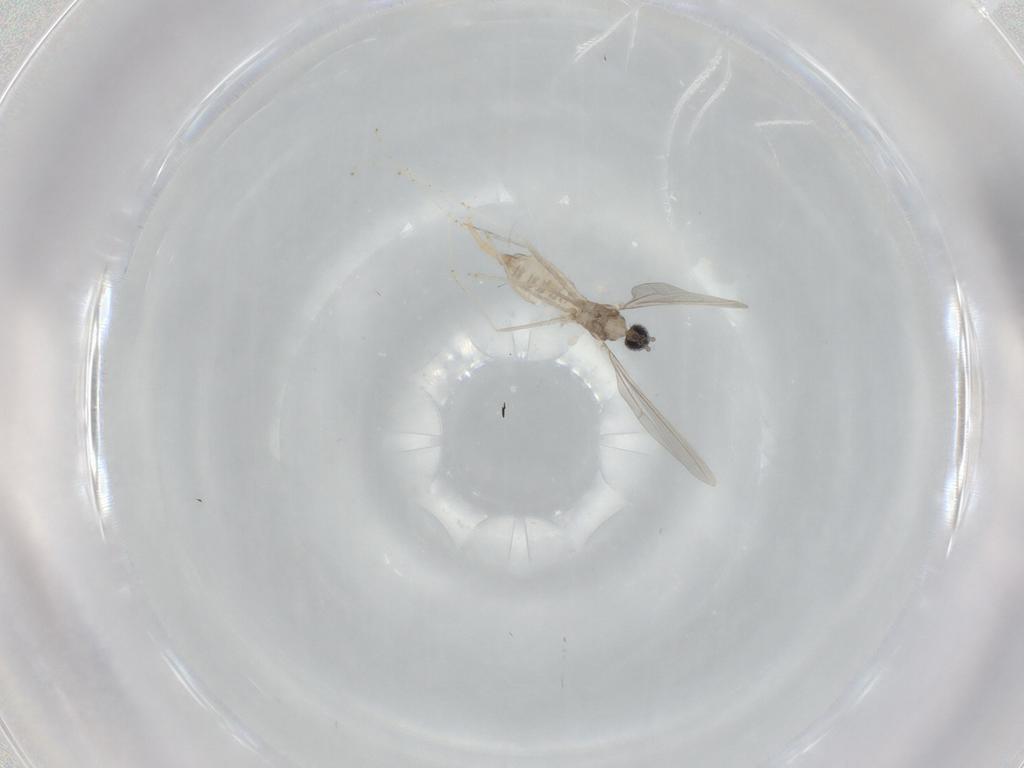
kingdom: Animalia
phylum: Arthropoda
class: Insecta
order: Diptera
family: Cecidomyiidae
